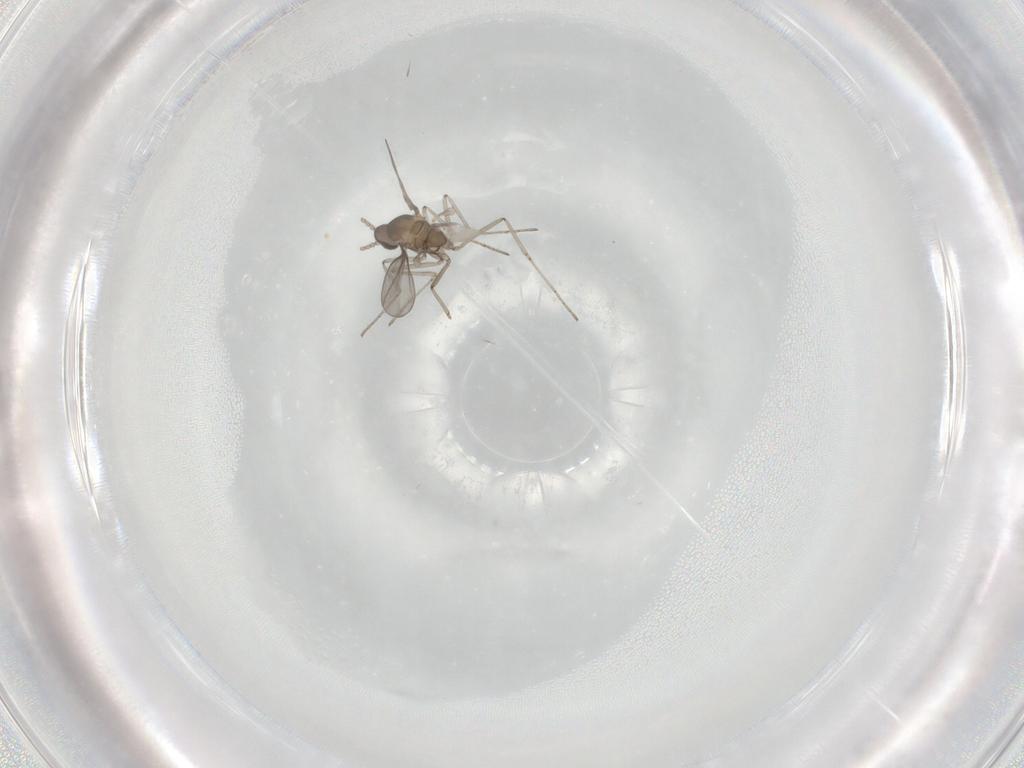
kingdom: Animalia
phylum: Arthropoda
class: Insecta
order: Diptera
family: Cecidomyiidae
